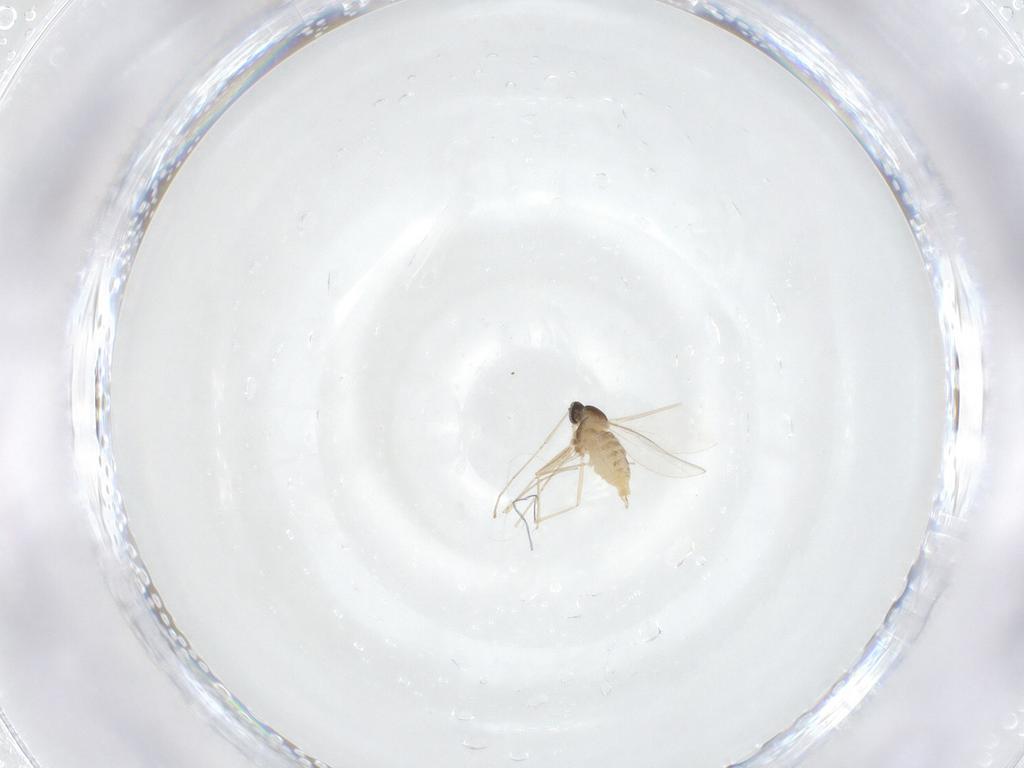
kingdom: Animalia
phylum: Arthropoda
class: Insecta
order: Diptera
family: Cecidomyiidae
